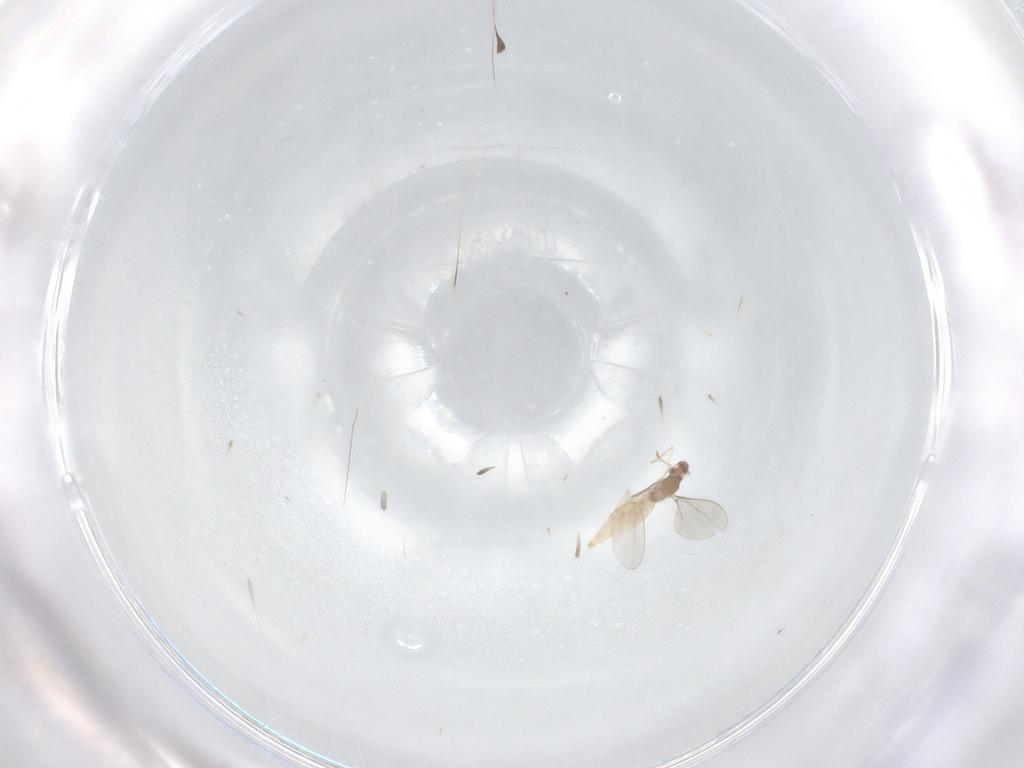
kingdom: Animalia
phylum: Arthropoda
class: Insecta
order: Diptera
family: Cecidomyiidae
